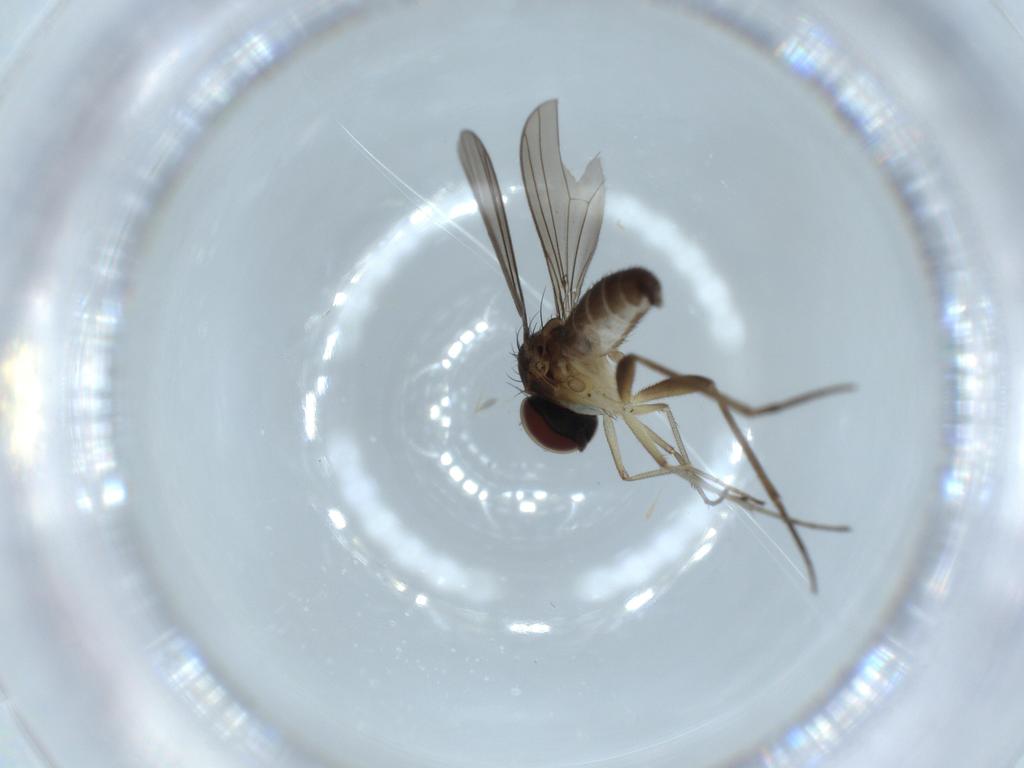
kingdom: Animalia
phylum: Arthropoda
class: Insecta
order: Diptera
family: Dolichopodidae
